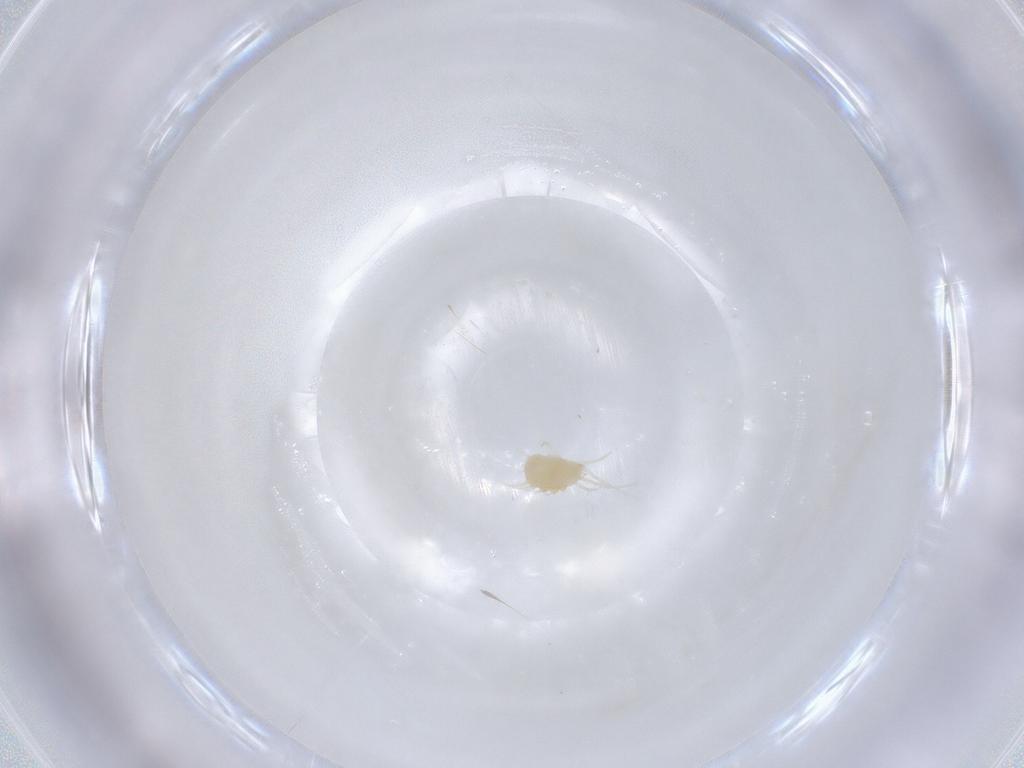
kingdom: Animalia
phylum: Arthropoda
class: Arachnida
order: Trombidiformes
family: Tetranychidae
